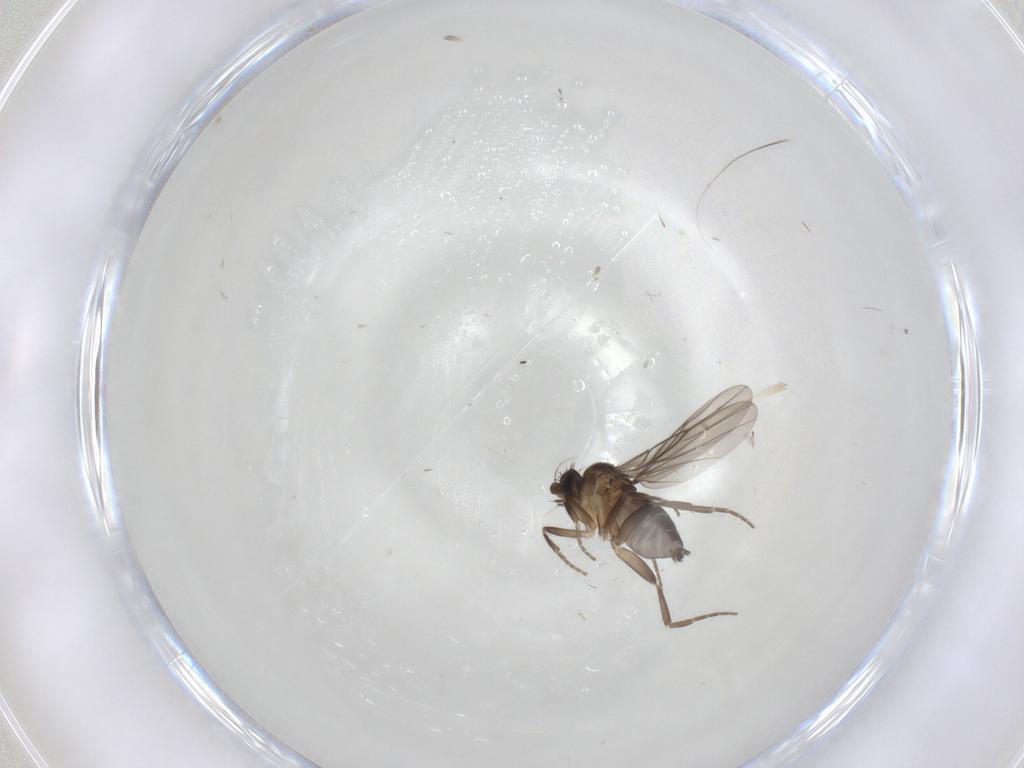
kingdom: Animalia
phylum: Arthropoda
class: Insecta
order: Diptera
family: Phoridae
